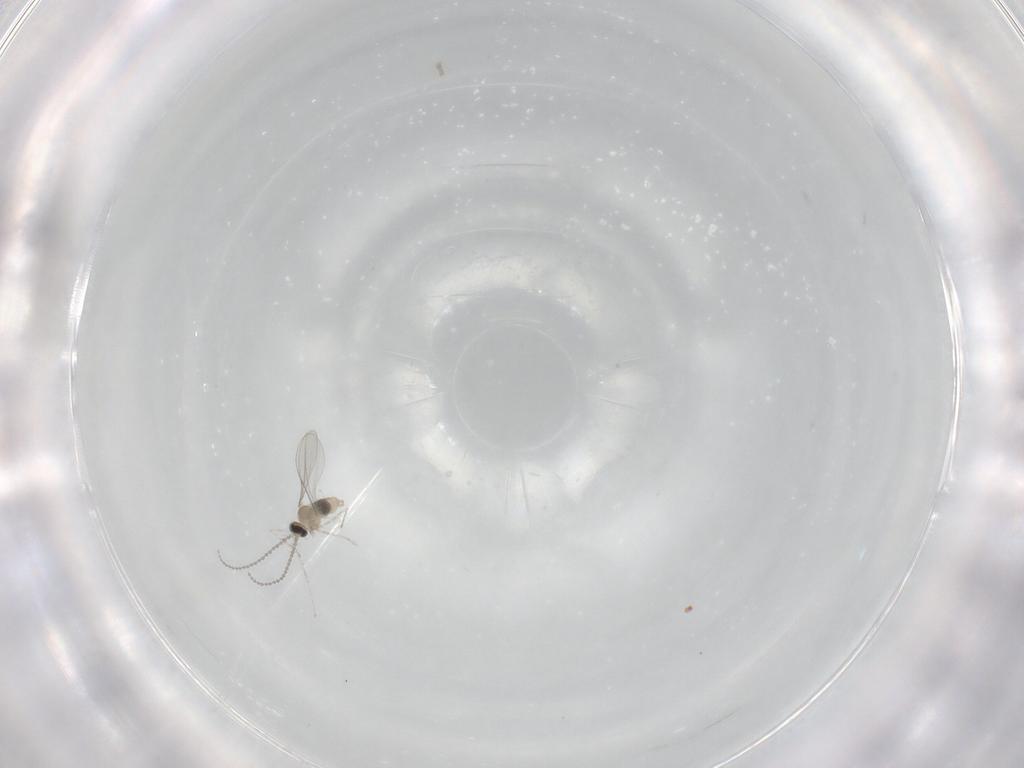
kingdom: Animalia
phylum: Arthropoda
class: Insecta
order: Diptera
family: Cecidomyiidae
